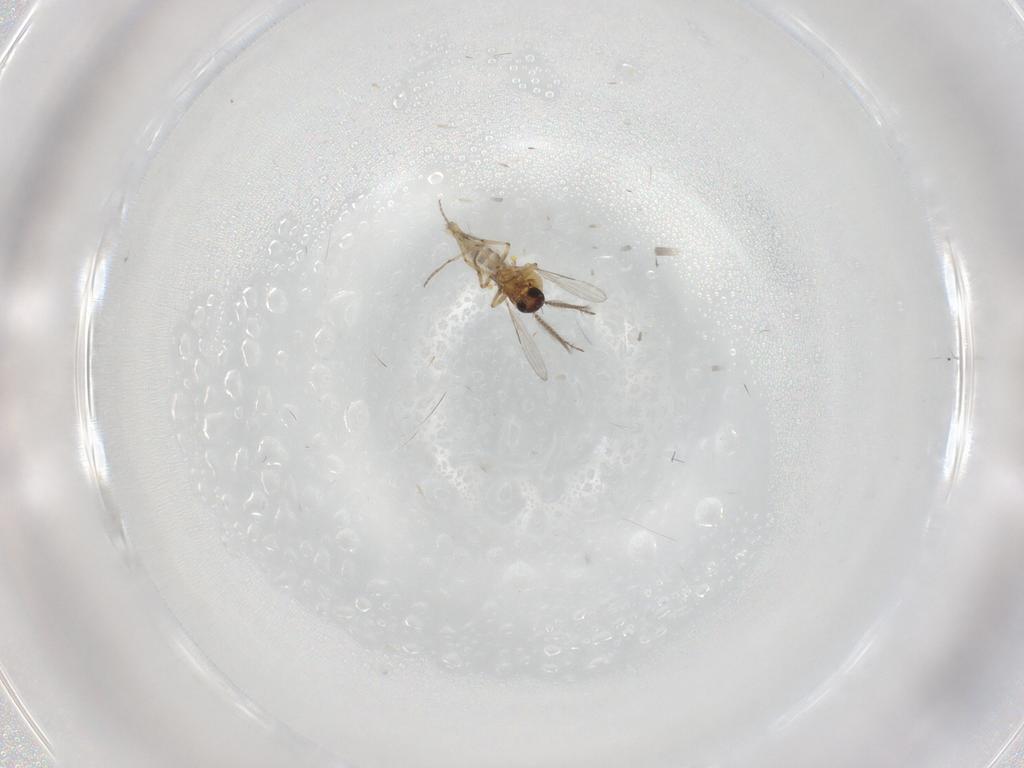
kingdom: Animalia
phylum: Arthropoda
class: Insecta
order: Diptera
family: Ceratopogonidae
